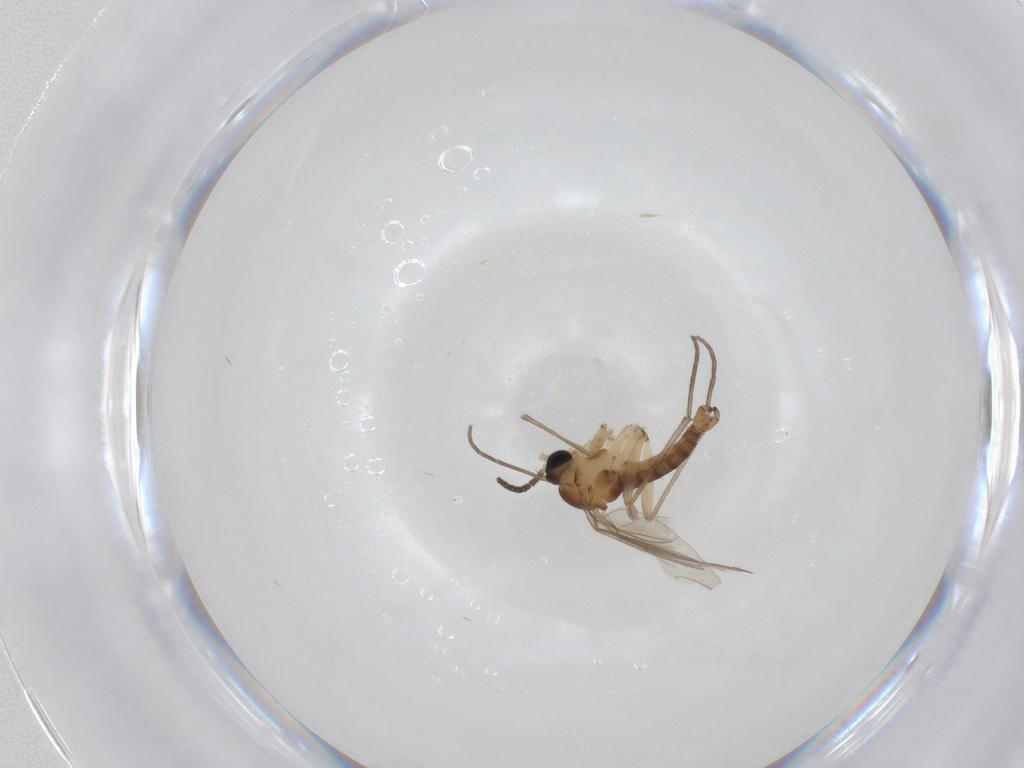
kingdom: Animalia
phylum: Arthropoda
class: Insecta
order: Diptera
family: Sciaridae
